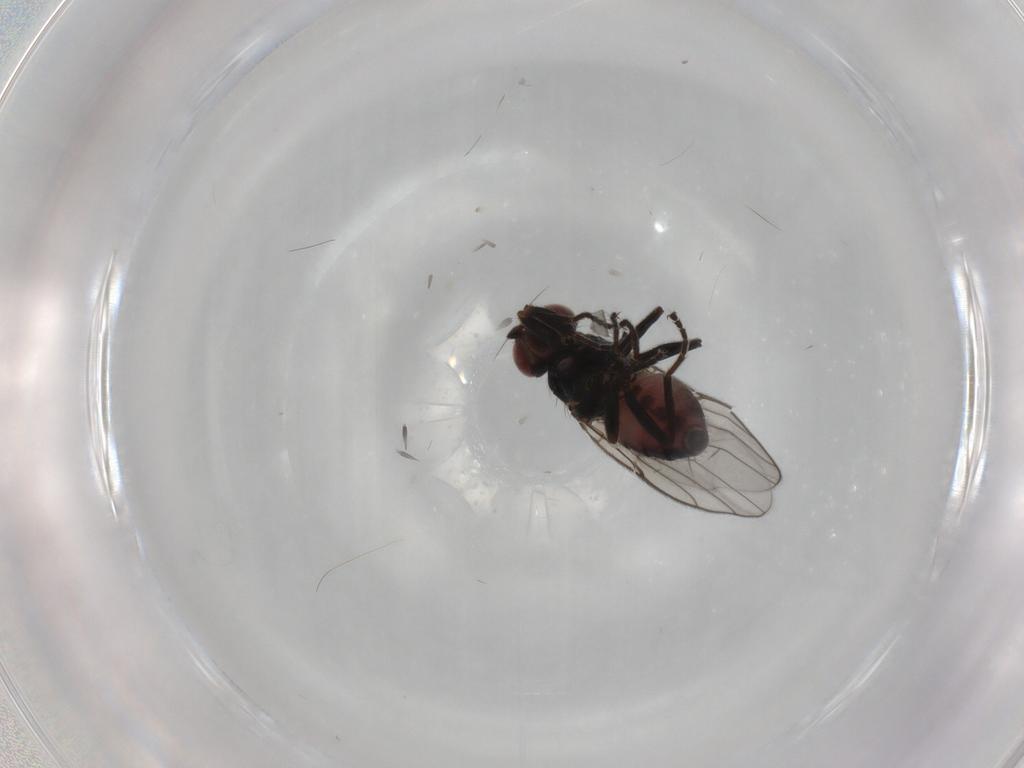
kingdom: Animalia
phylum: Arthropoda
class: Insecta
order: Diptera
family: Chloropidae
